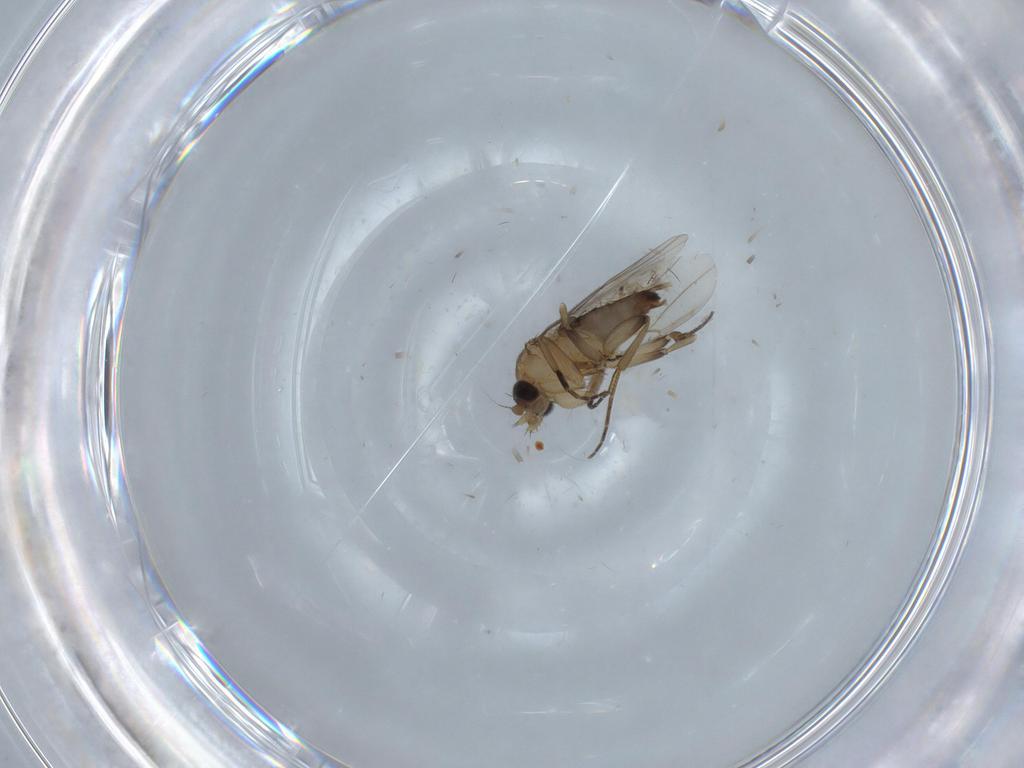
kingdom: Animalia
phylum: Arthropoda
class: Insecta
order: Diptera
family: Phoridae
